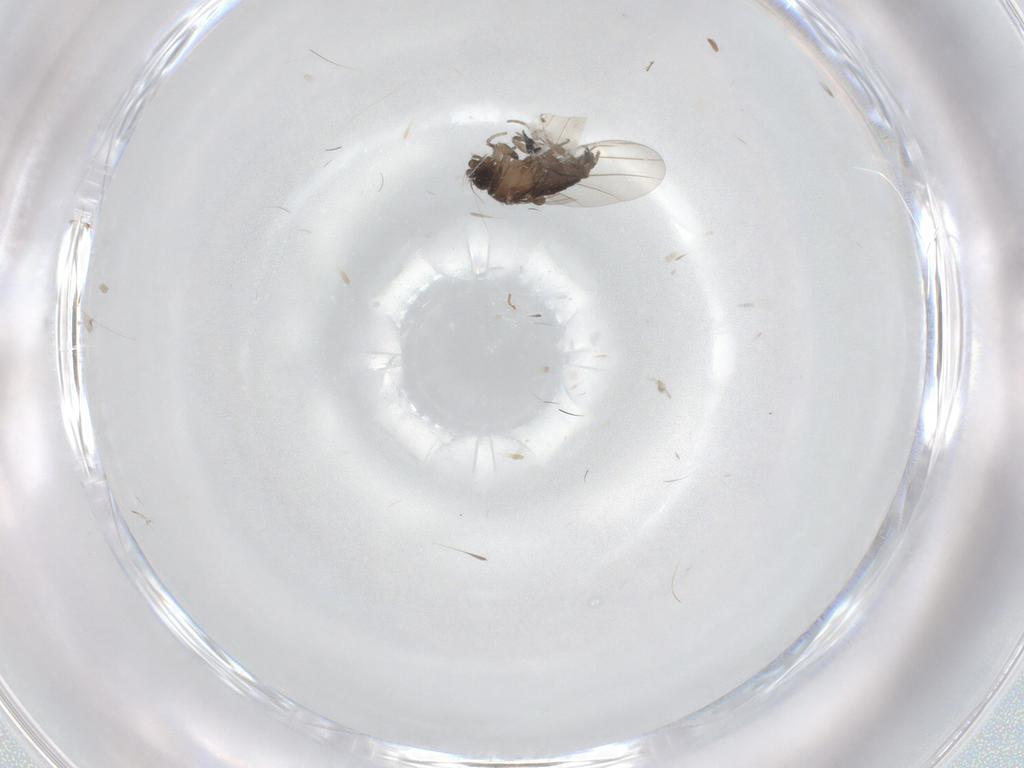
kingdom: Animalia
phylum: Arthropoda
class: Insecta
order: Diptera
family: Phoridae
